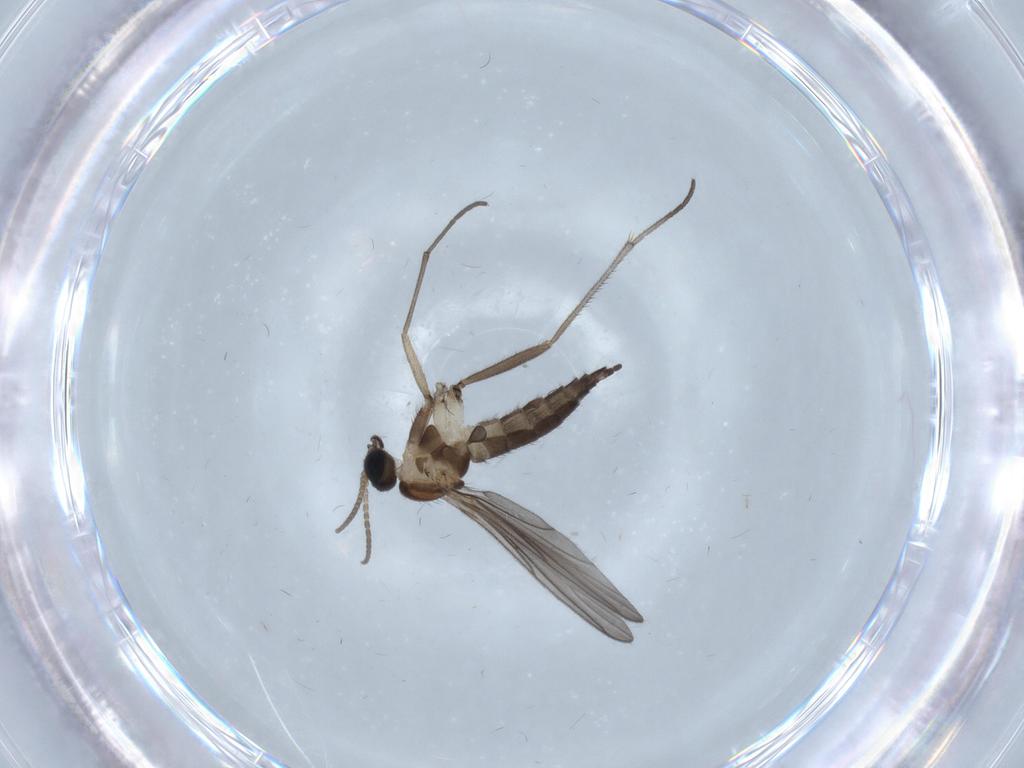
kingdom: Animalia
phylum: Arthropoda
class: Insecta
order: Diptera
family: Sciaridae
